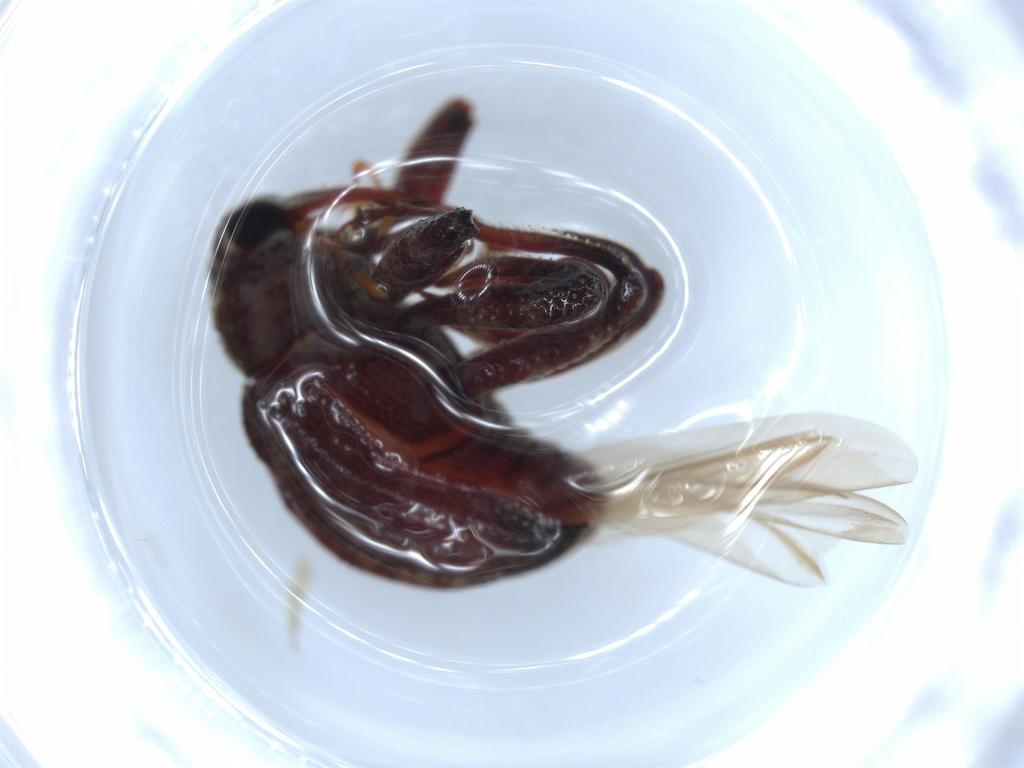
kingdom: Animalia
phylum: Arthropoda
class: Insecta
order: Coleoptera
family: Curculionidae
